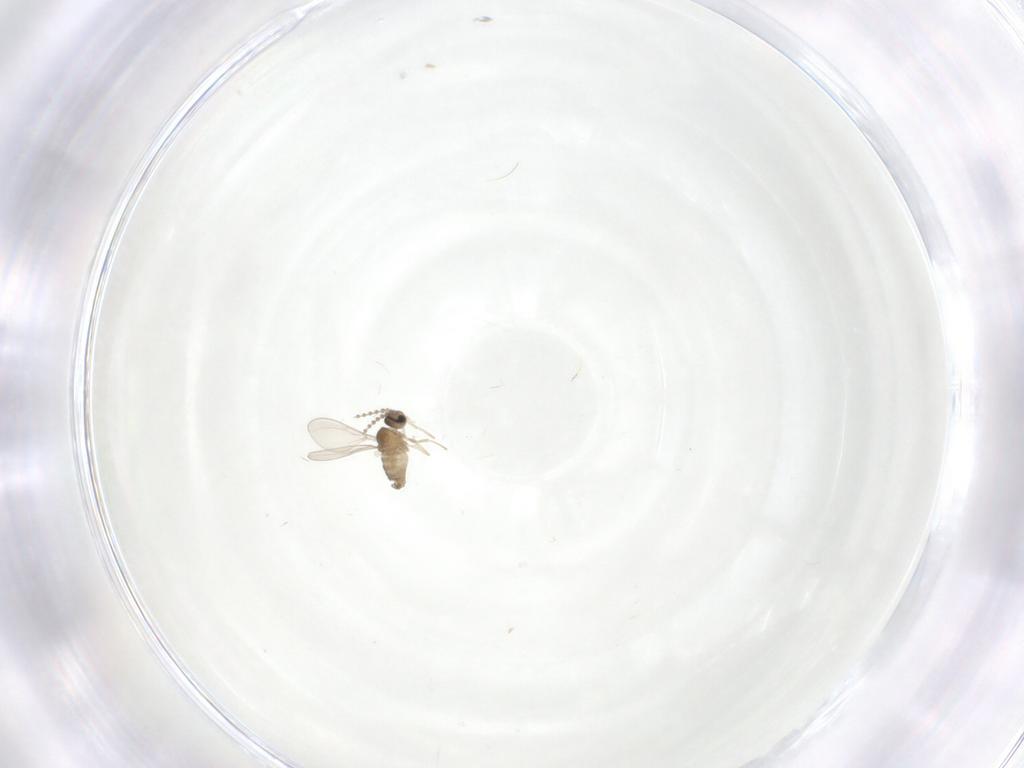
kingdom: Animalia
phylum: Arthropoda
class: Insecta
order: Diptera
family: Cecidomyiidae
